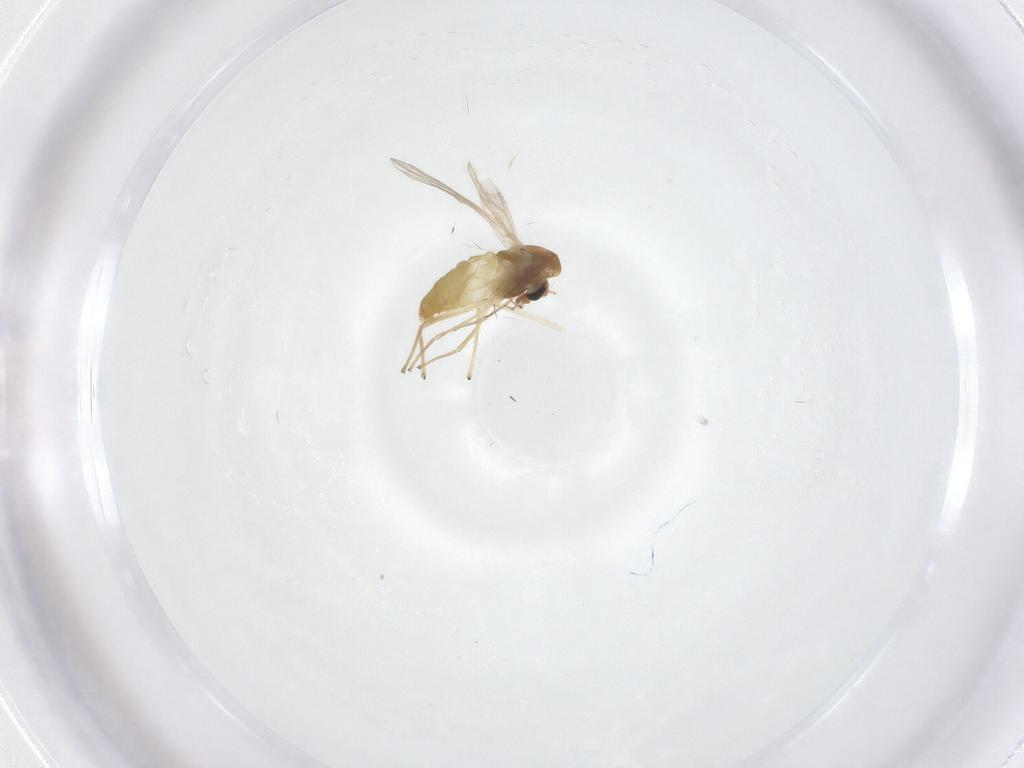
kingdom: Animalia
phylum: Arthropoda
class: Insecta
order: Diptera
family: Chironomidae
